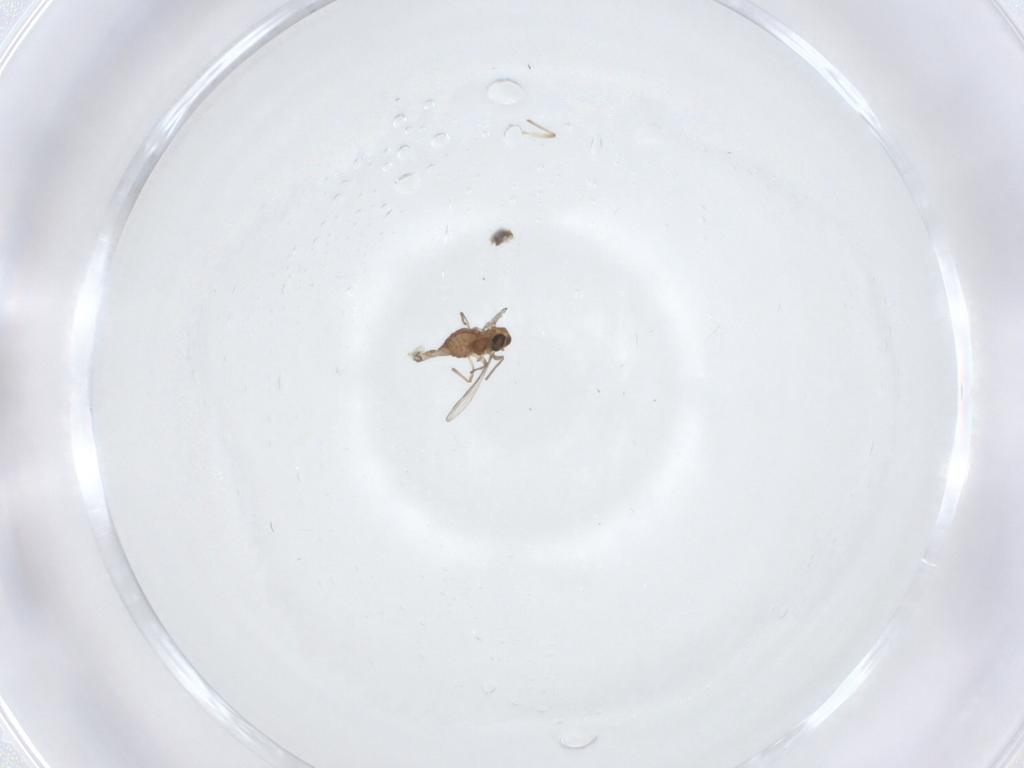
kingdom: Animalia
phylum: Arthropoda
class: Insecta
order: Diptera
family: Chironomidae
